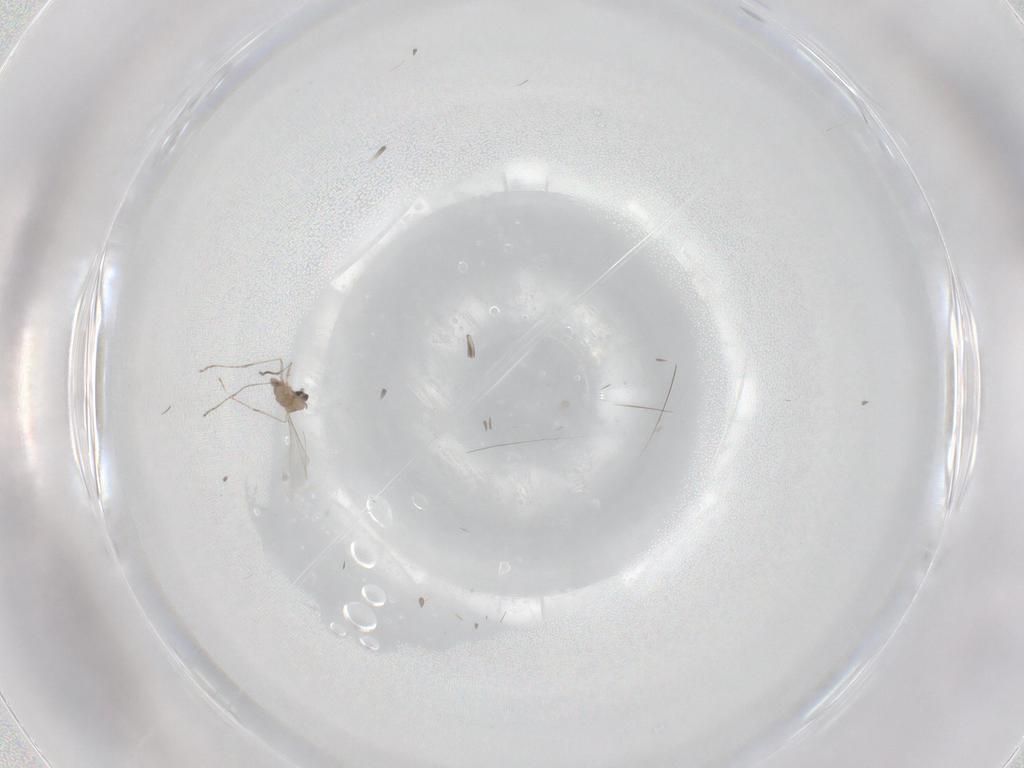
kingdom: Animalia
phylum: Arthropoda
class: Insecta
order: Diptera
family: Cecidomyiidae
